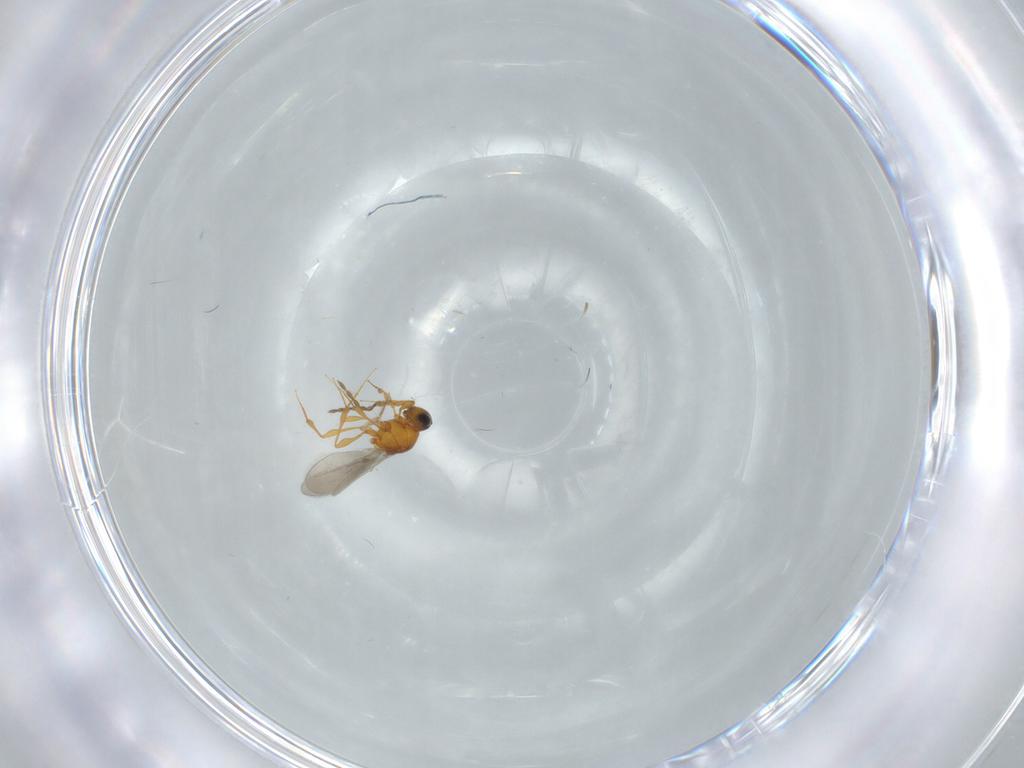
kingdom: Animalia
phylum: Arthropoda
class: Insecta
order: Hymenoptera
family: Platygastridae
